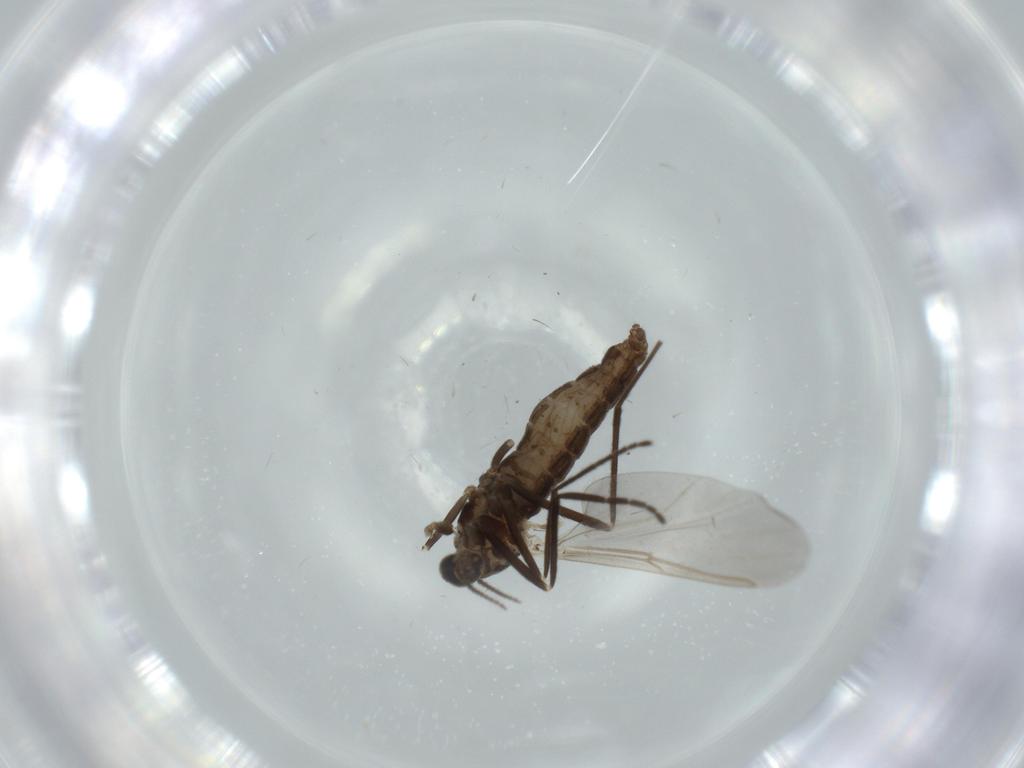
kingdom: Animalia
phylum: Arthropoda
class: Insecta
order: Diptera
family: Cecidomyiidae
